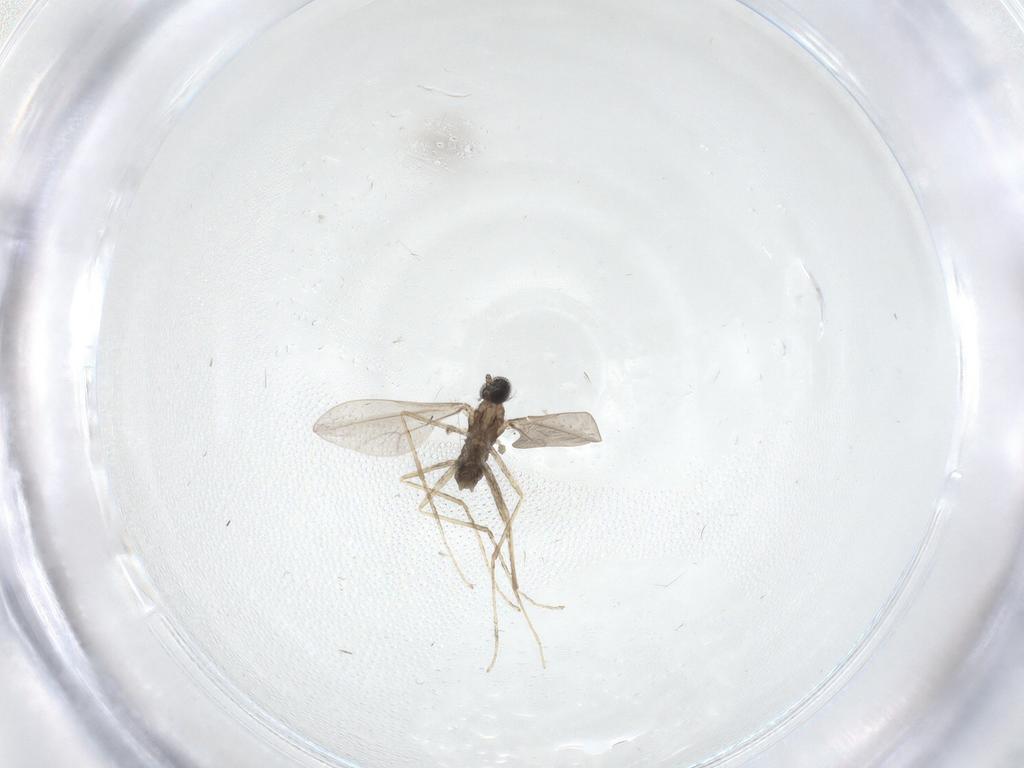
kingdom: Animalia
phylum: Arthropoda
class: Insecta
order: Diptera
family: Cecidomyiidae
